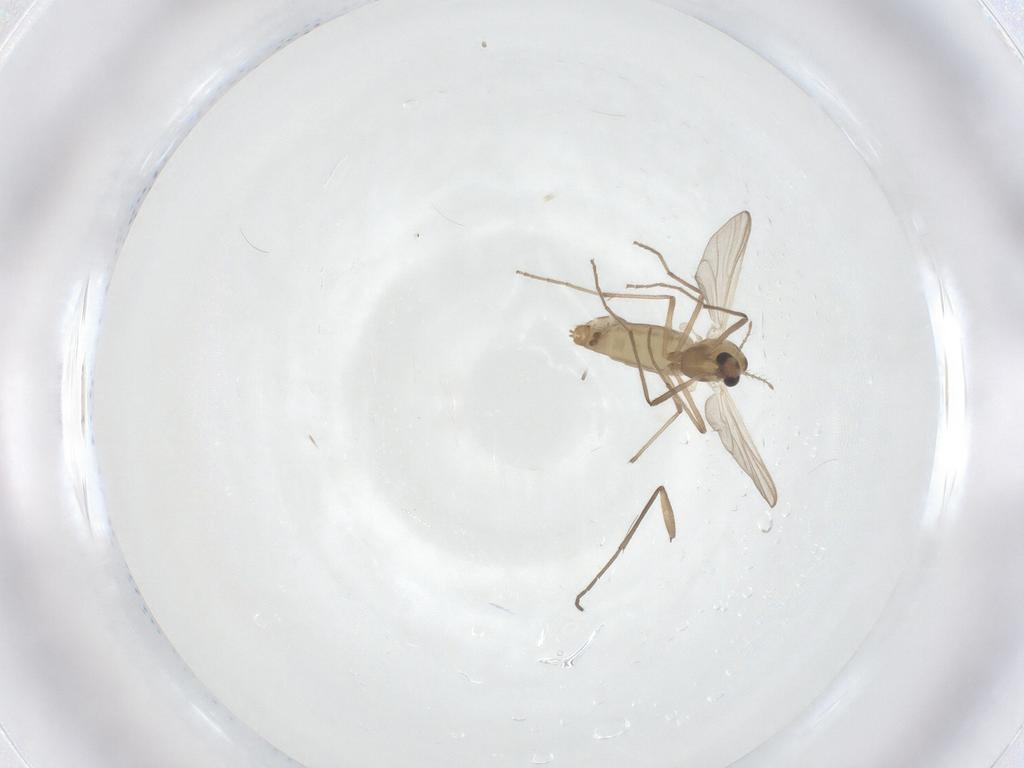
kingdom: Animalia
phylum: Arthropoda
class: Insecta
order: Diptera
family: Chironomidae
